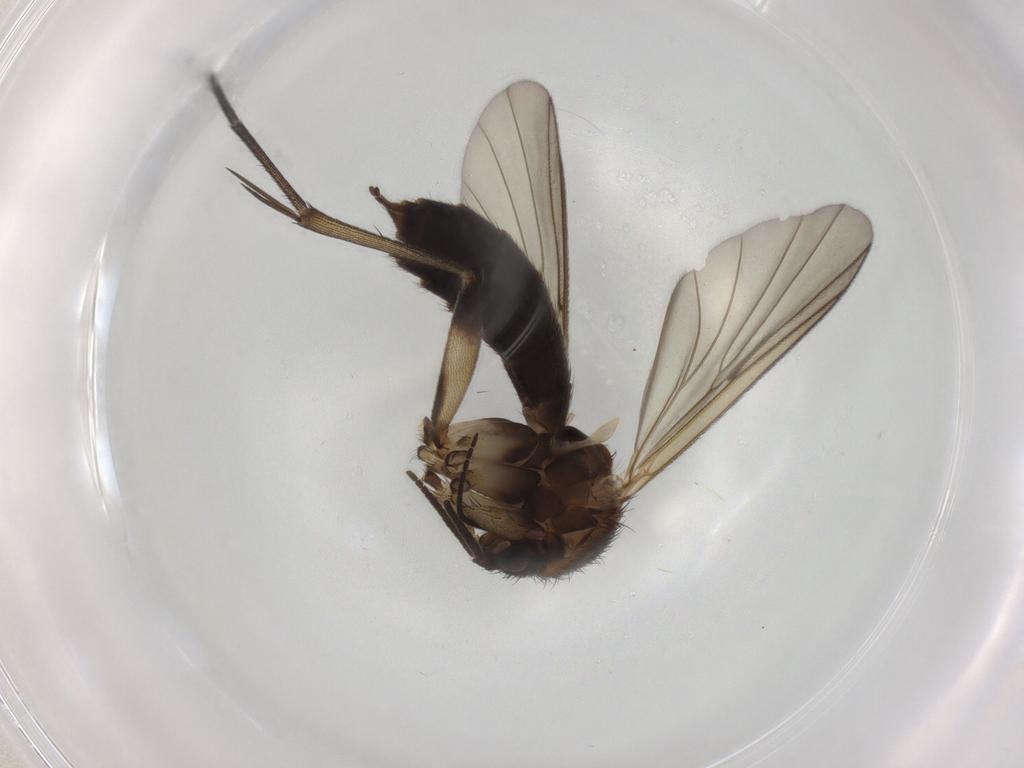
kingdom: Animalia
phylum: Arthropoda
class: Insecta
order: Diptera
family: Mycetophilidae
